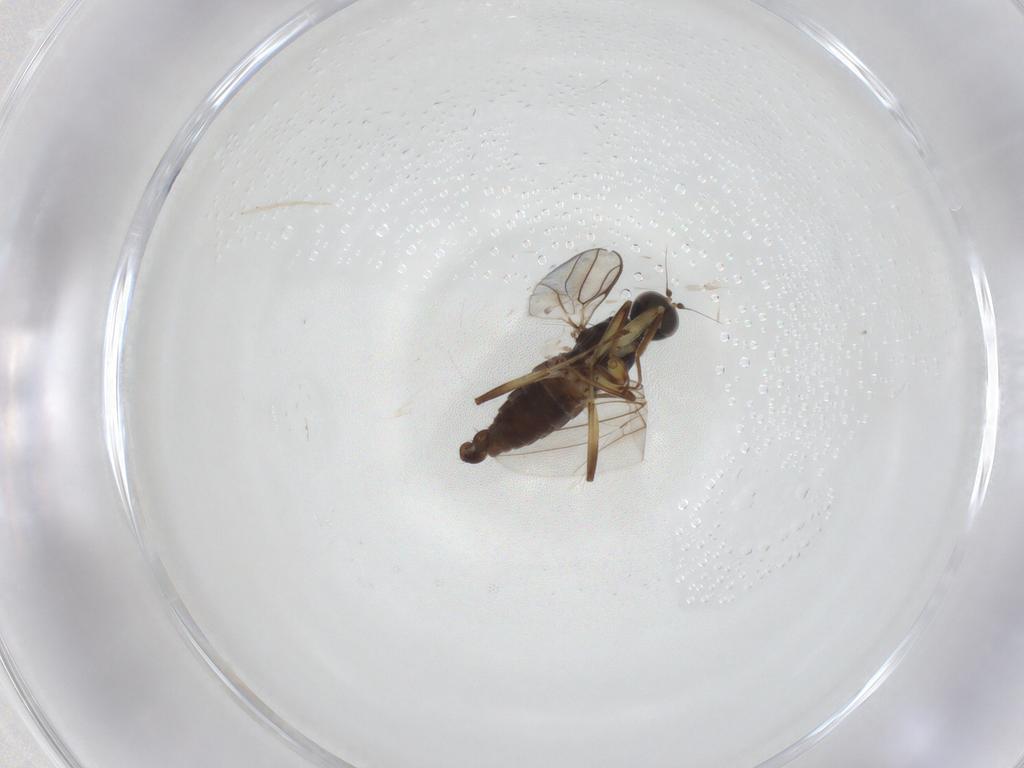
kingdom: Animalia
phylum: Arthropoda
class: Insecta
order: Diptera
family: Hybotidae
